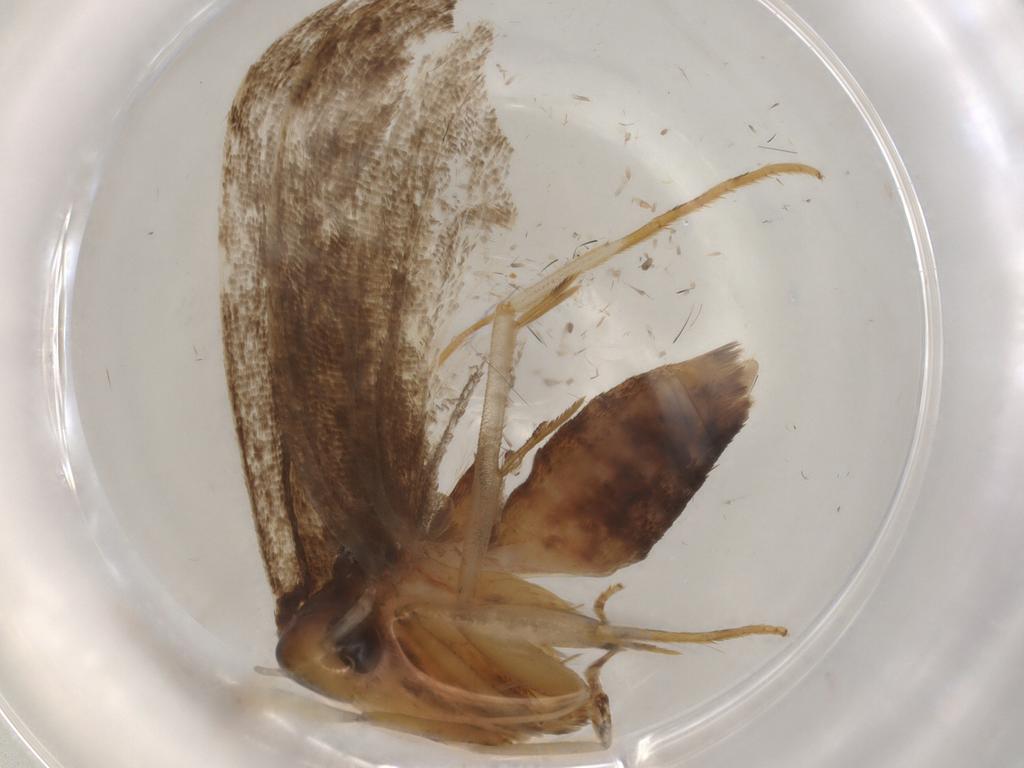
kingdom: Animalia
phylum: Arthropoda
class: Insecta
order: Lepidoptera
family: Lecithoceridae
